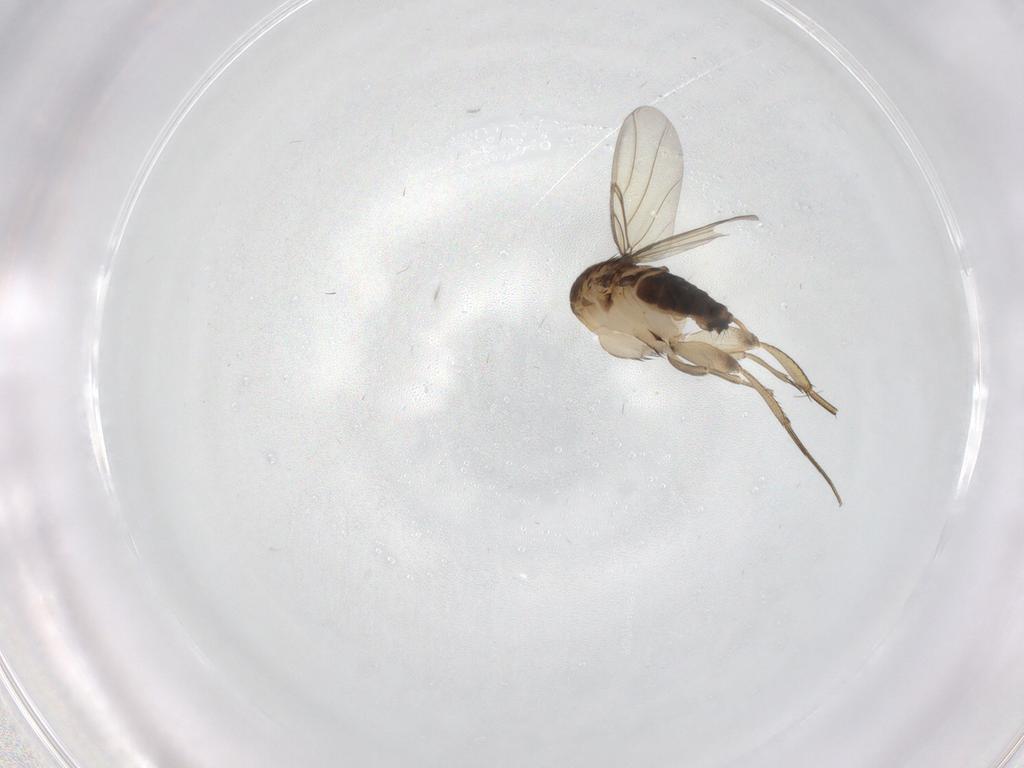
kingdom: Animalia
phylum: Arthropoda
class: Insecta
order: Diptera
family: Phoridae
